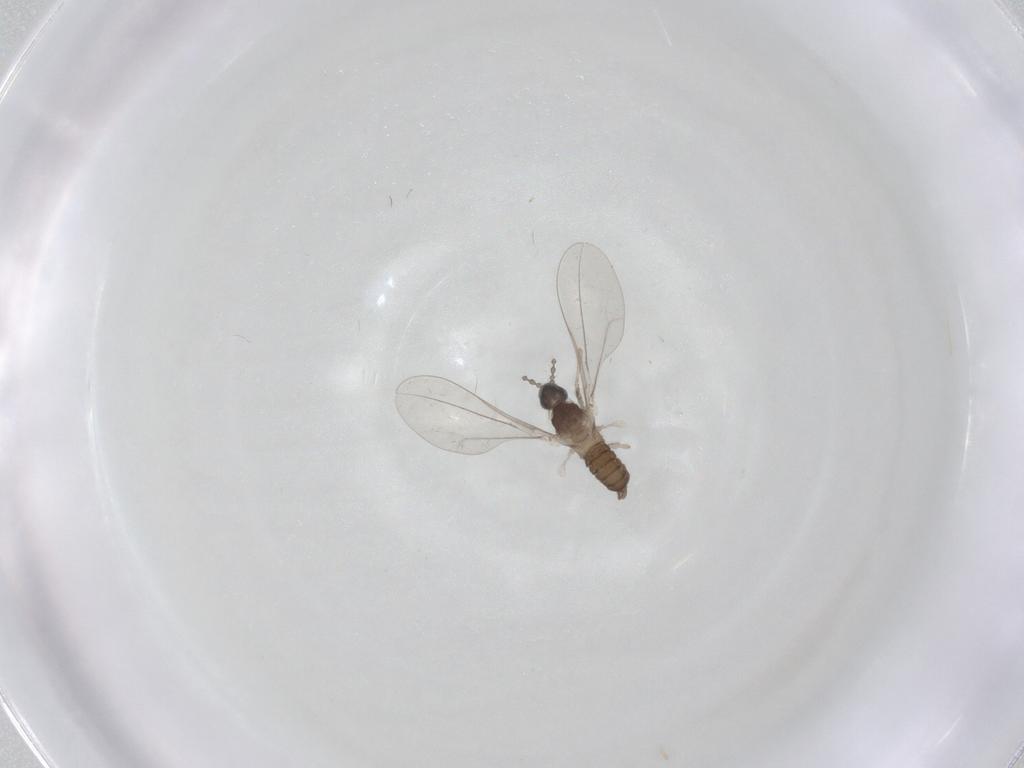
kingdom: Animalia
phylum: Arthropoda
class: Insecta
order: Diptera
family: Cecidomyiidae
